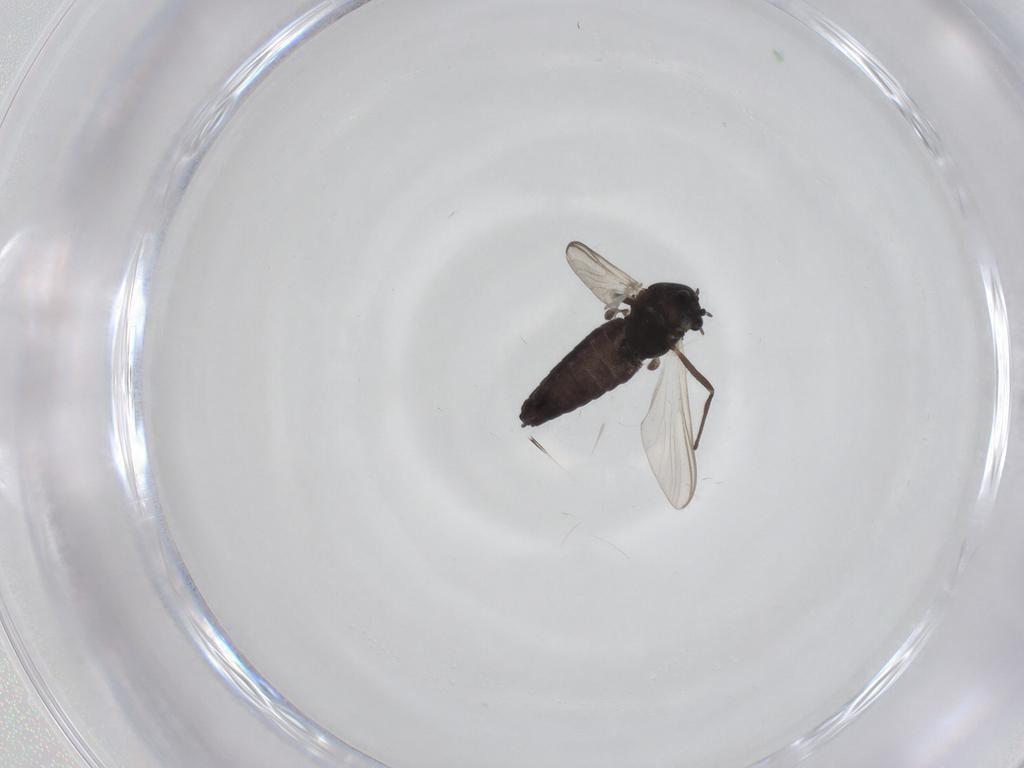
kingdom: Animalia
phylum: Arthropoda
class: Insecta
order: Diptera
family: Chironomidae
